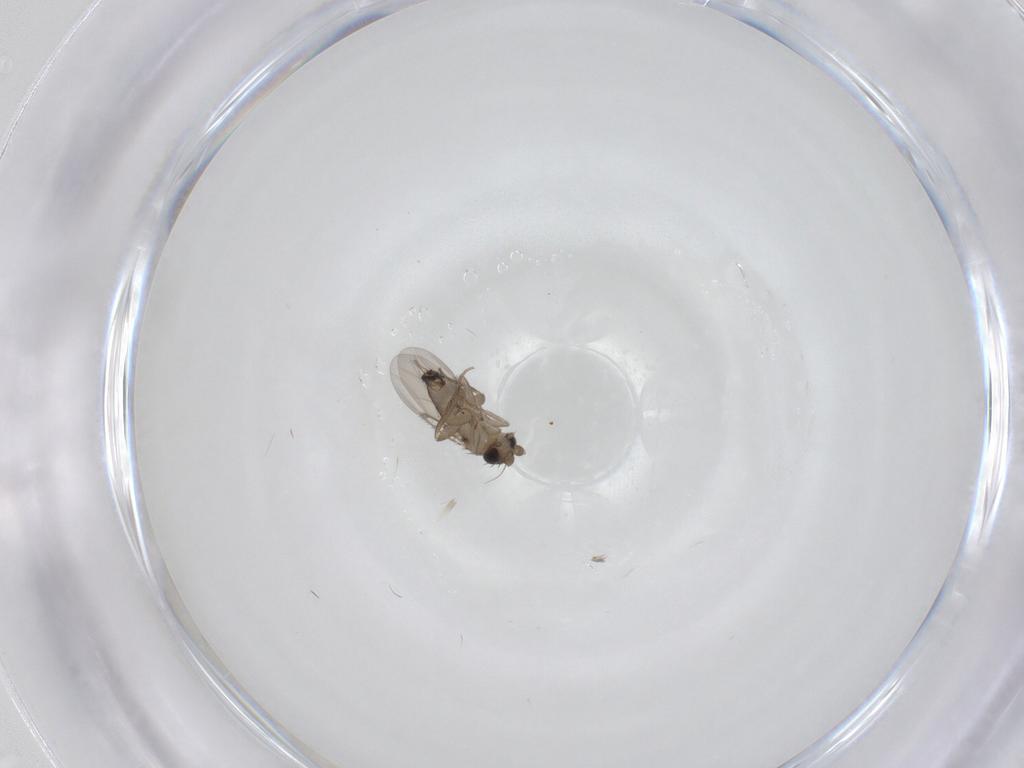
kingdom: Animalia
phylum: Arthropoda
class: Insecta
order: Diptera
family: Phoridae
